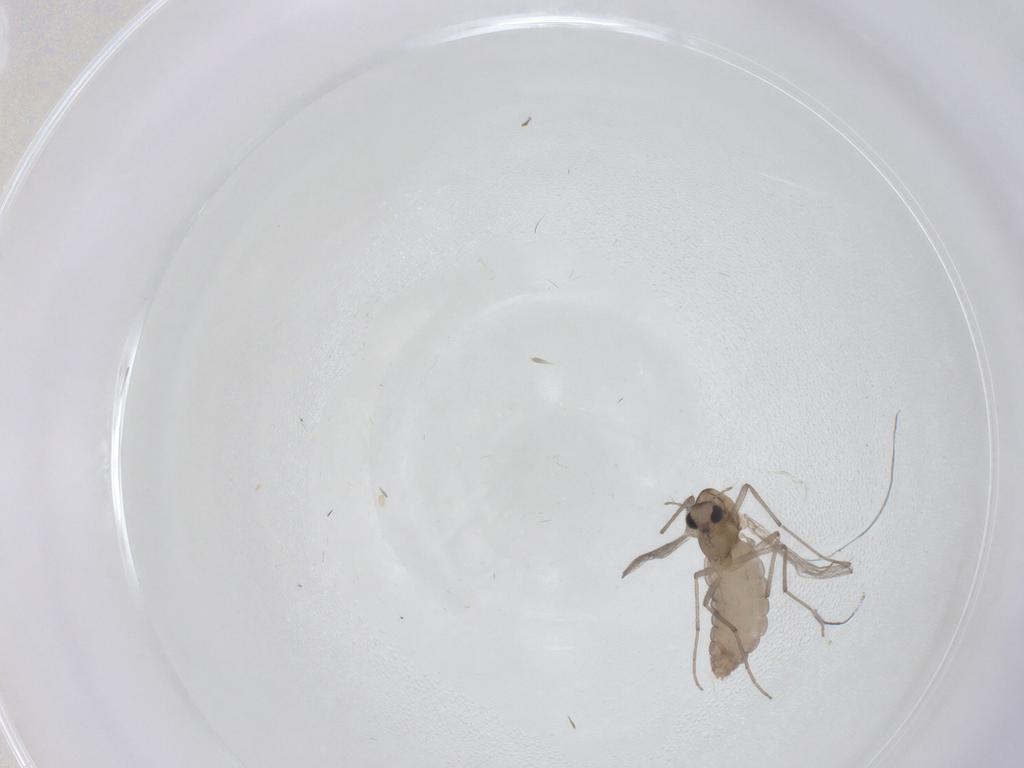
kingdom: Animalia
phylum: Arthropoda
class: Insecta
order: Diptera
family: Chironomidae
